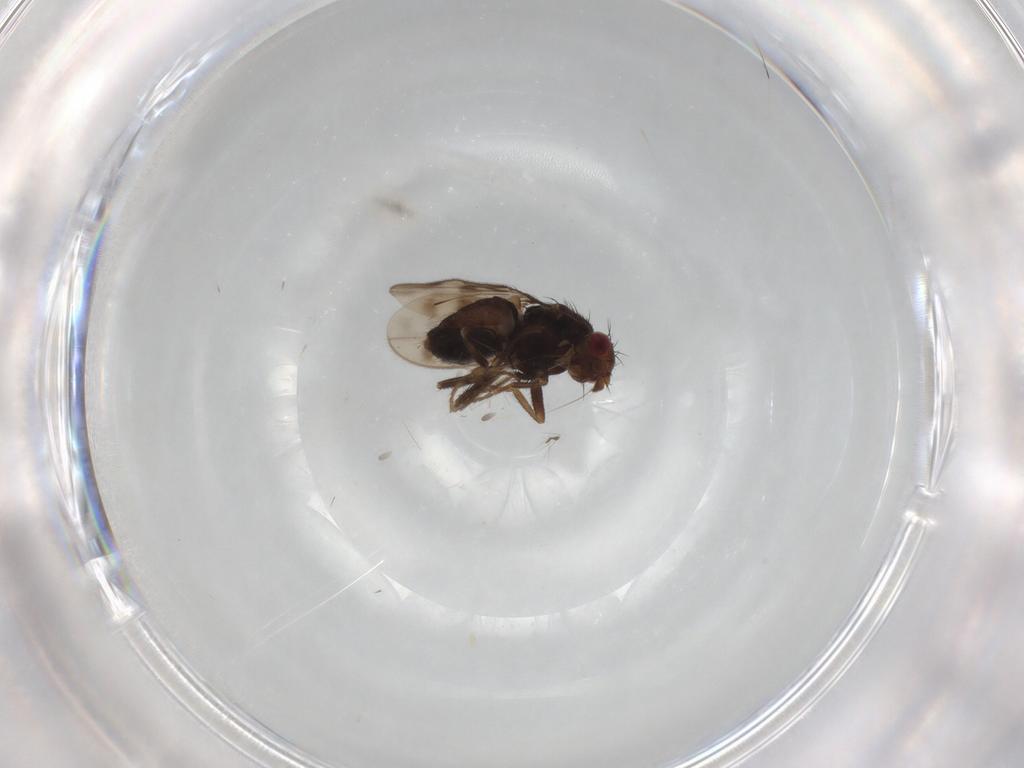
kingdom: Animalia
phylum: Arthropoda
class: Insecta
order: Diptera
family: Sphaeroceridae
